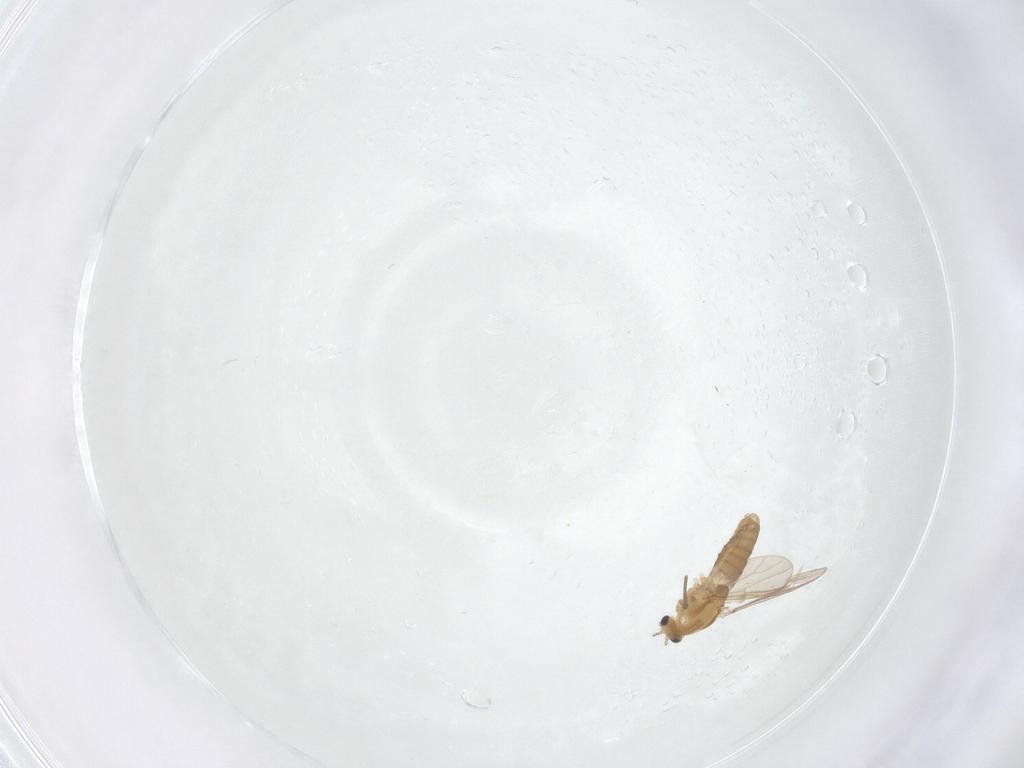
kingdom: Animalia
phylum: Arthropoda
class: Insecta
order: Diptera
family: Chironomidae
